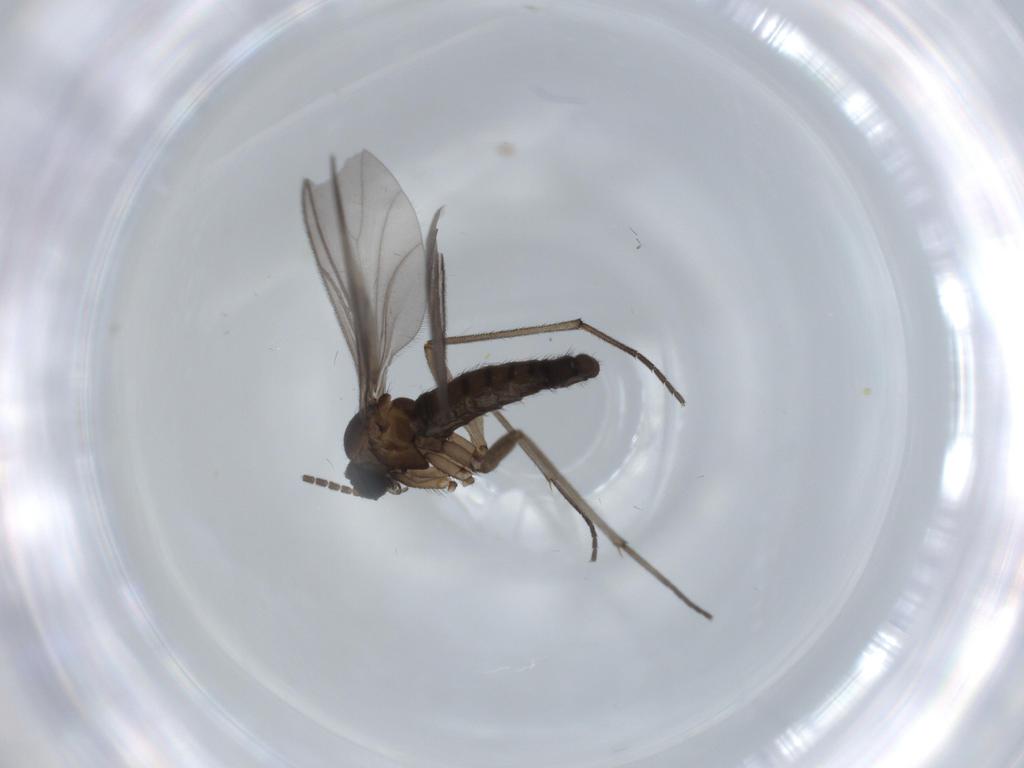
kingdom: Animalia
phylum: Arthropoda
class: Insecta
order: Diptera
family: Sciaridae
